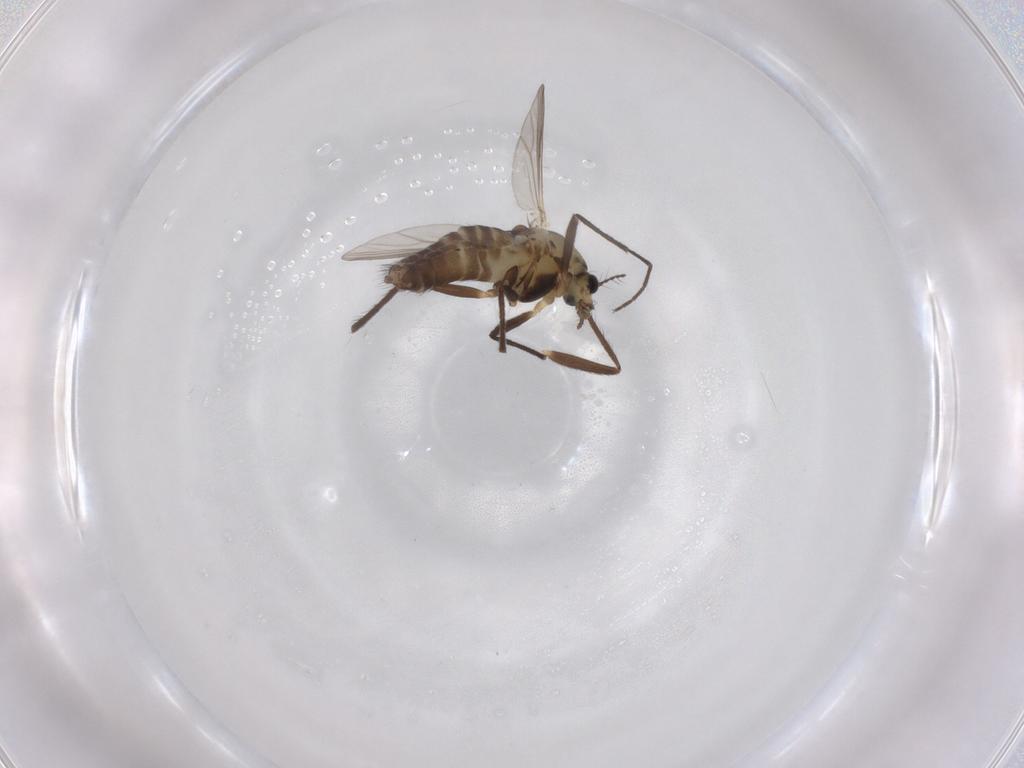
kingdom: Animalia
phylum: Arthropoda
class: Insecta
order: Diptera
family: Chironomidae
